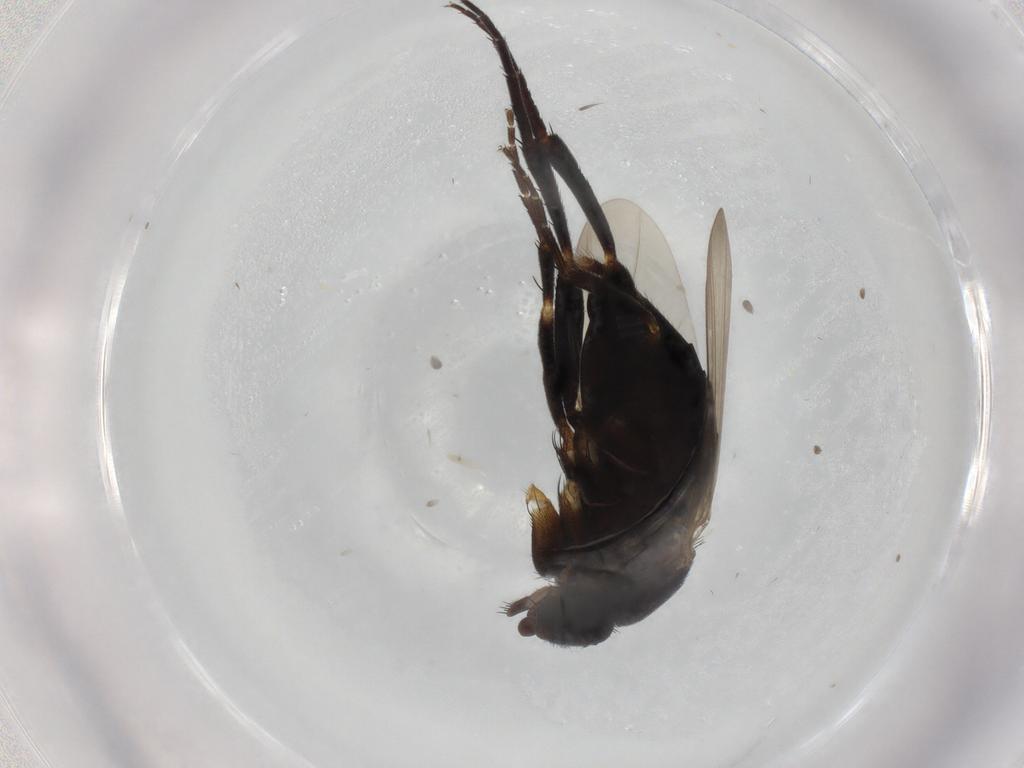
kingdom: Animalia
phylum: Arthropoda
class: Insecta
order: Diptera
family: Phoridae
